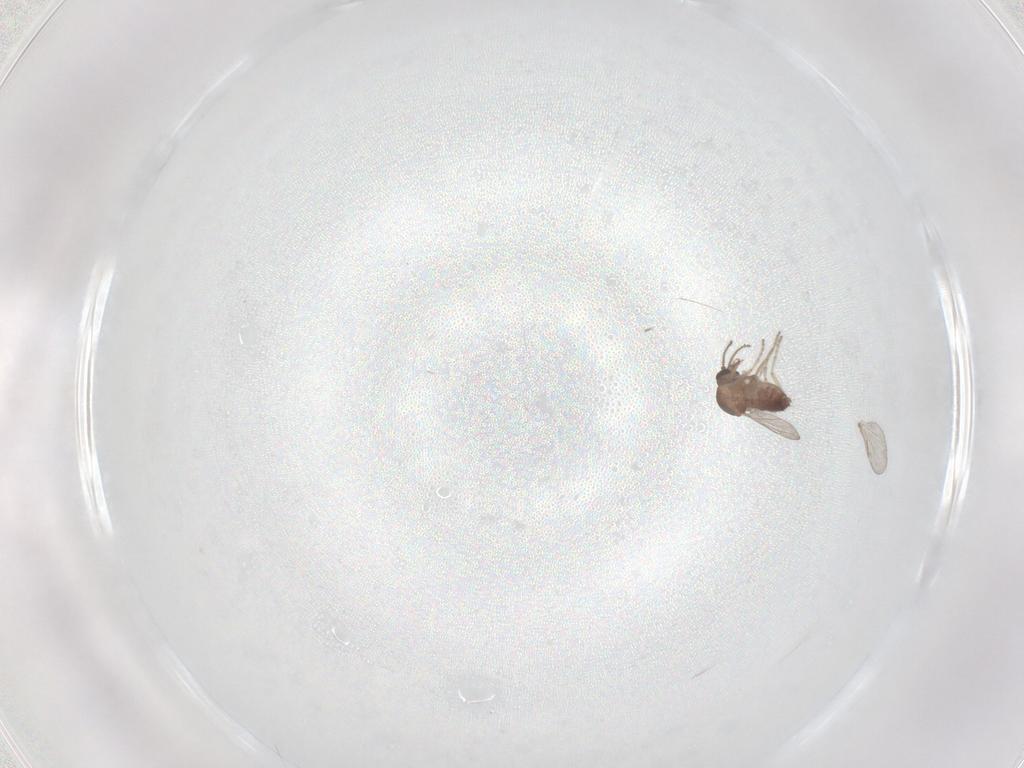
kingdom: Animalia
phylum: Arthropoda
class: Insecta
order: Diptera
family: Ceratopogonidae
